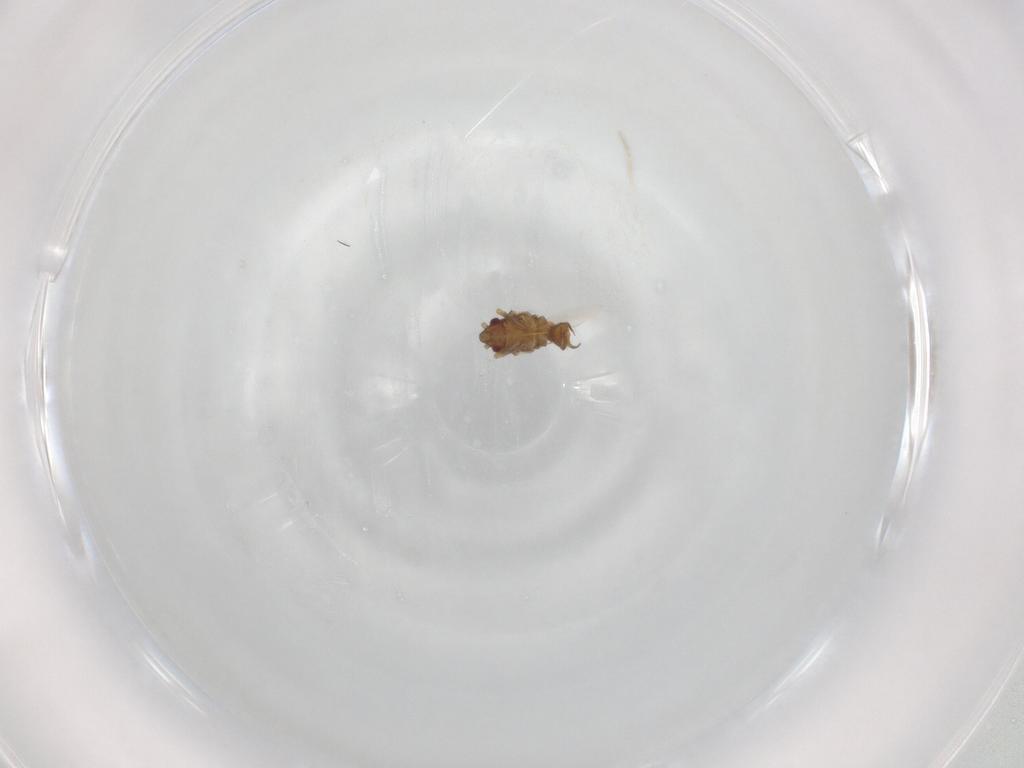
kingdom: Animalia
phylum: Arthropoda
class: Insecta
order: Hemiptera
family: Ceratocombidae
